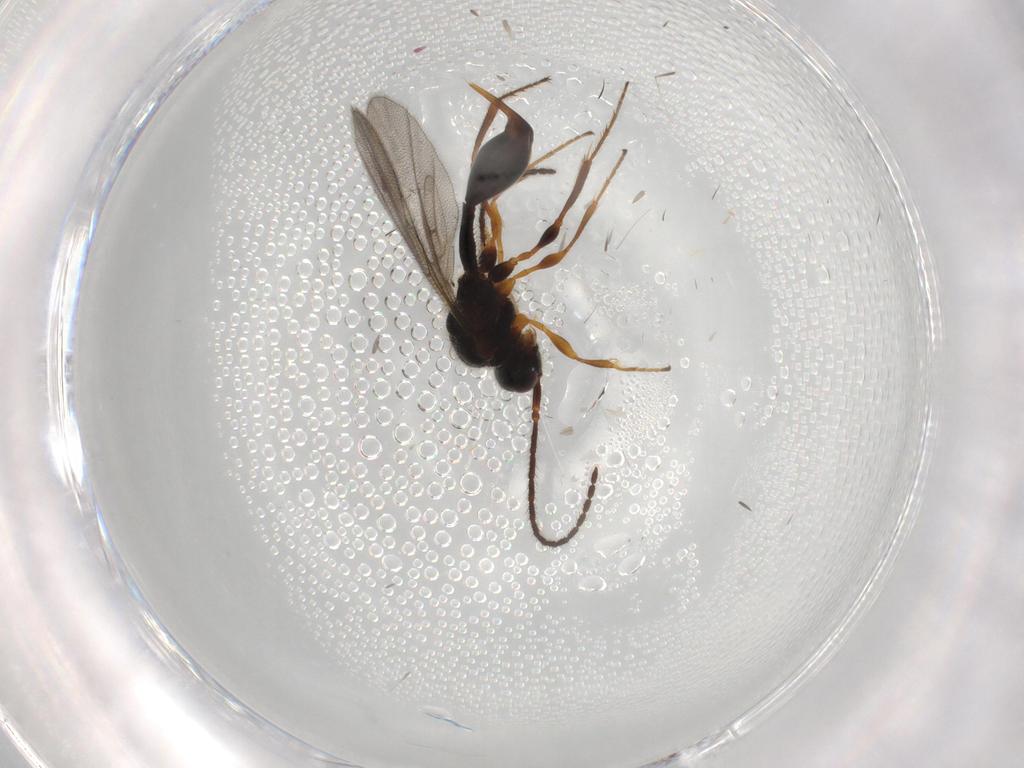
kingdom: Animalia
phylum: Arthropoda
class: Insecta
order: Hymenoptera
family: Diapriidae
